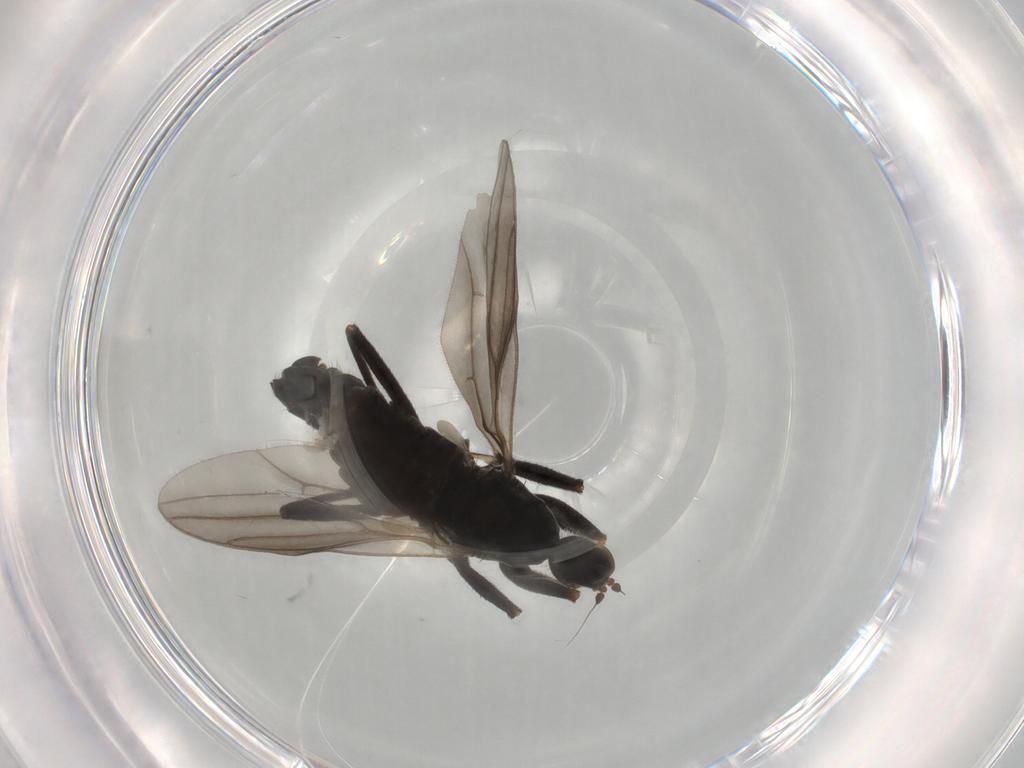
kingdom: Animalia
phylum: Arthropoda
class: Insecta
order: Diptera
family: Hybotidae
